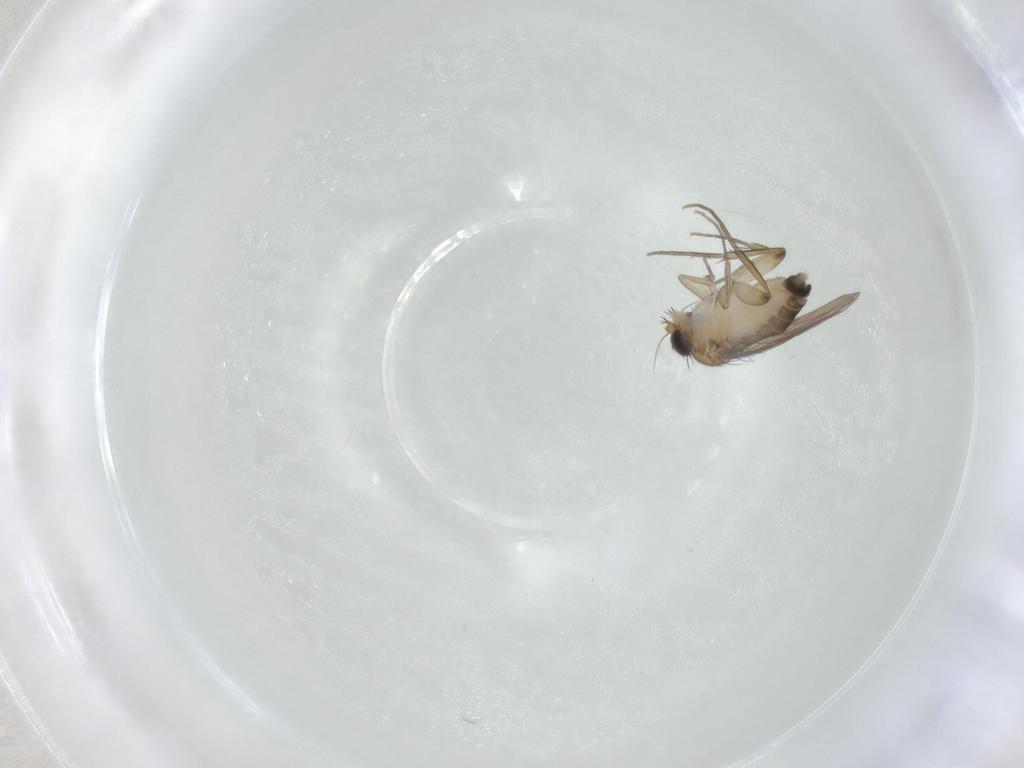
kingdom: Animalia
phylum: Arthropoda
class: Insecta
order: Diptera
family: Phoridae
